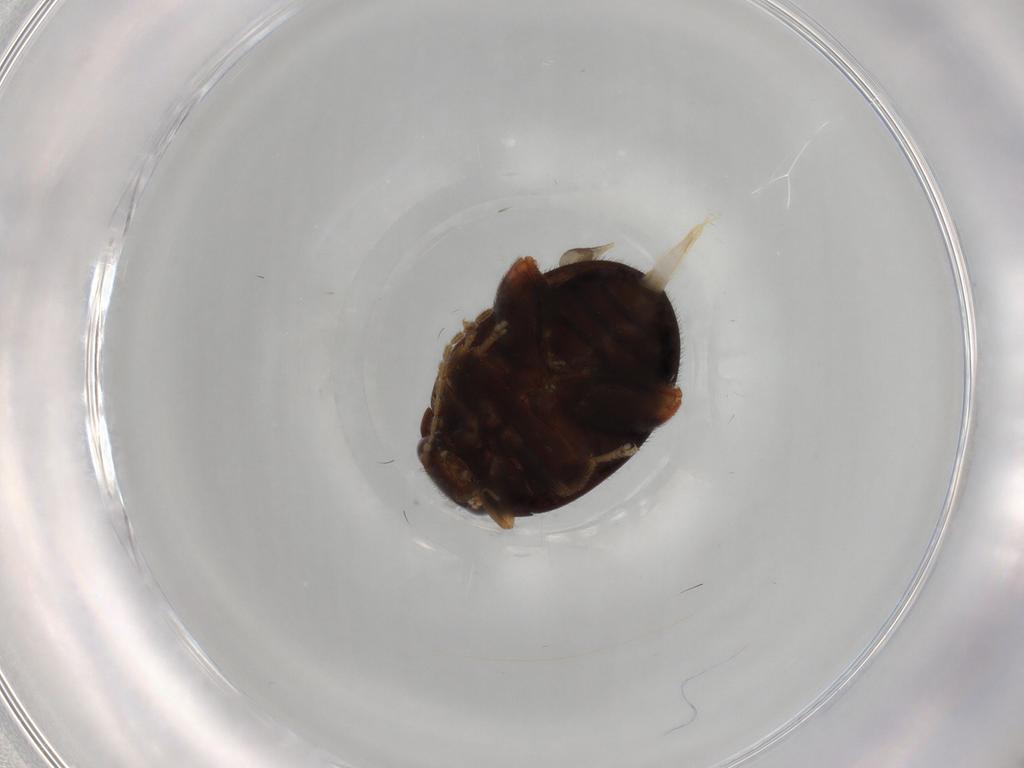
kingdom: Animalia
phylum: Arthropoda
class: Insecta
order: Coleoptera
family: Scirtidae
